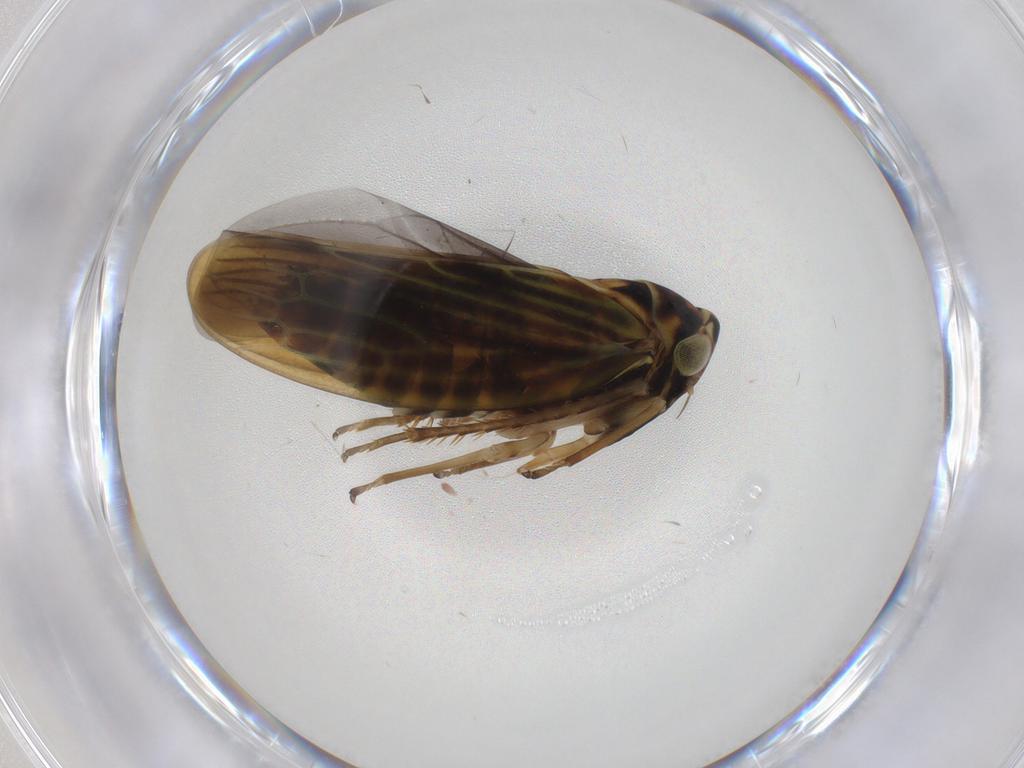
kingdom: Animalia
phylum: Arthropoda
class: Insecta
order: Hemiptera
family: Cicadellidae
